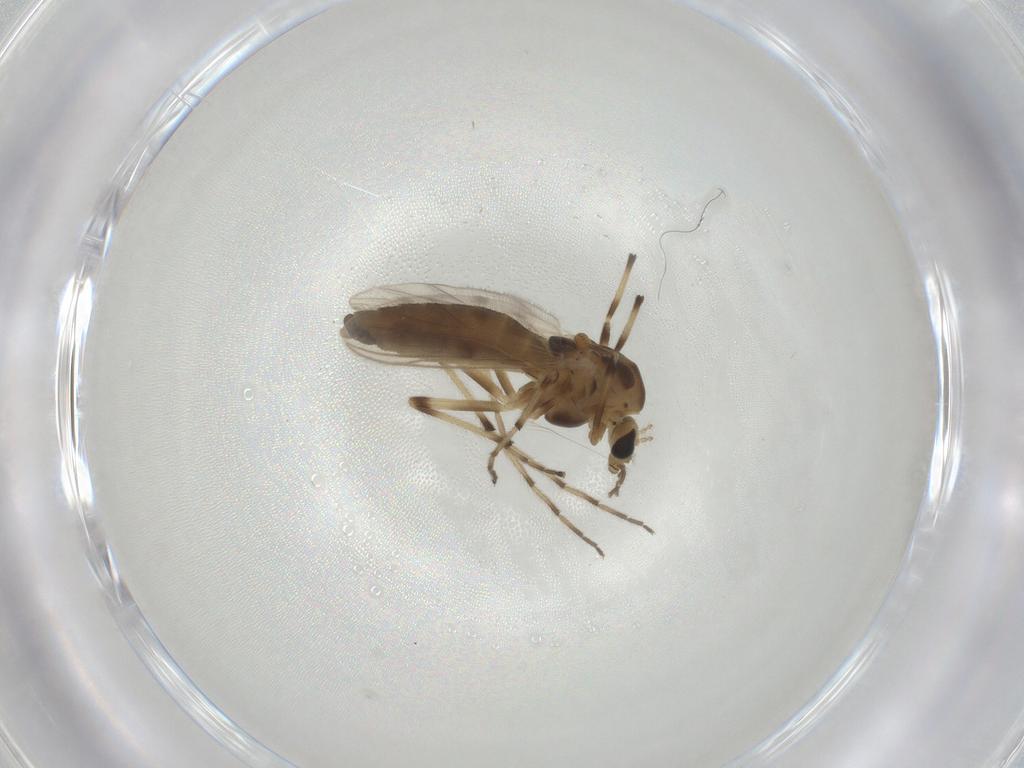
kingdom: Animalia
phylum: Arthropoda
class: Insecta
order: Diptera
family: Chironomidae
